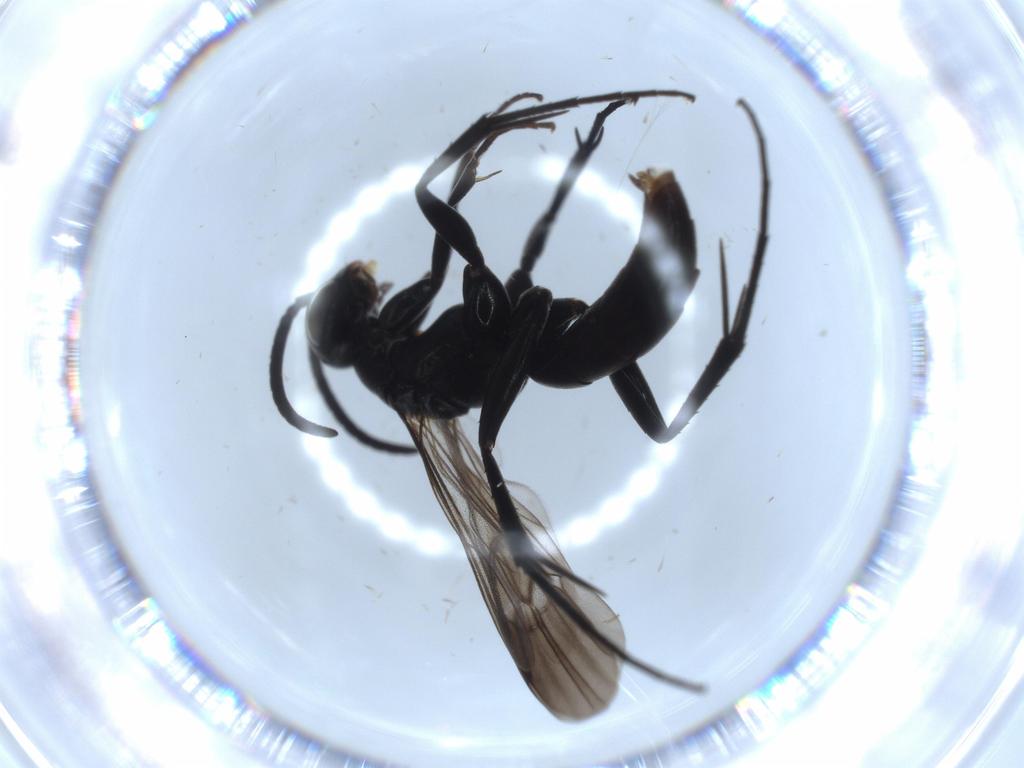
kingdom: Animalia
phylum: Arthropoda
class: Insecta
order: Hymenoptera
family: Pompilidae
